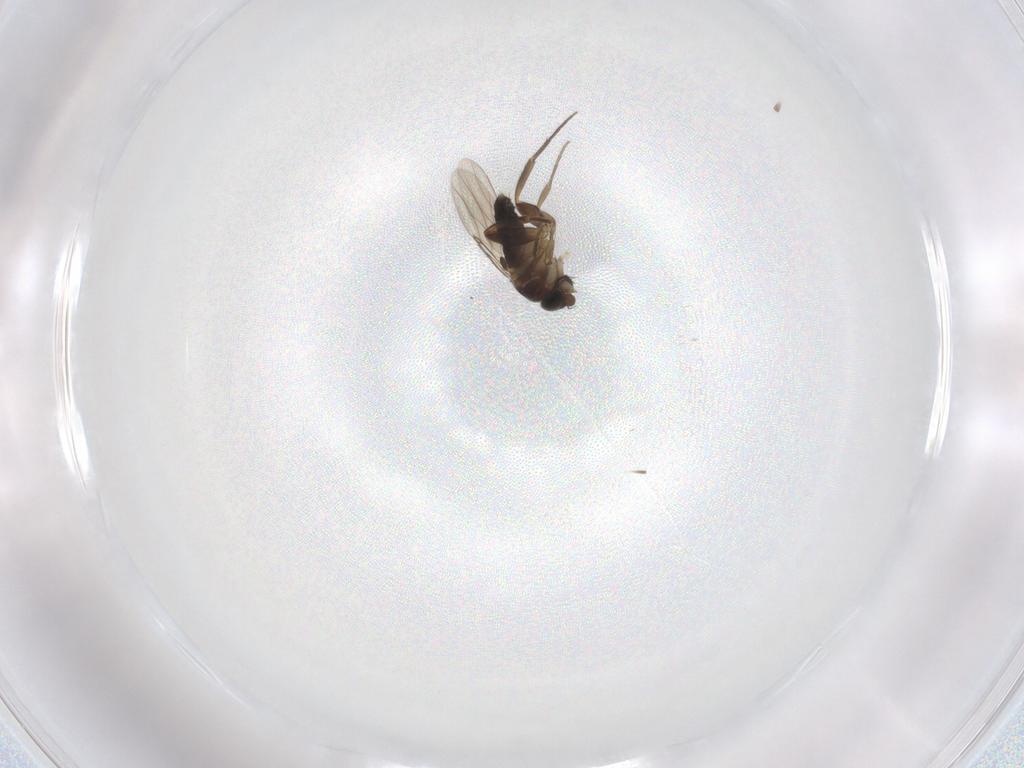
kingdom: Animalia
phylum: Arthropoda
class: Insecta
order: Diptera
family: Phoridae
